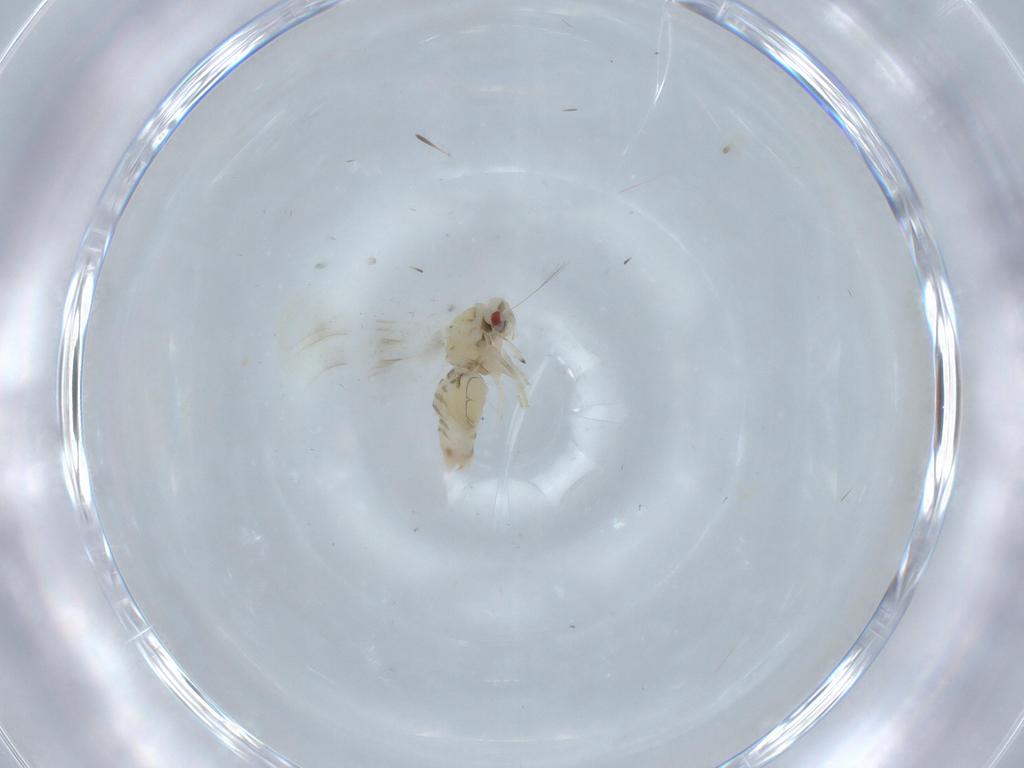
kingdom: Animalia
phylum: Arthropoda
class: Insecta
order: Hemiptera
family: Aleyrodidae
